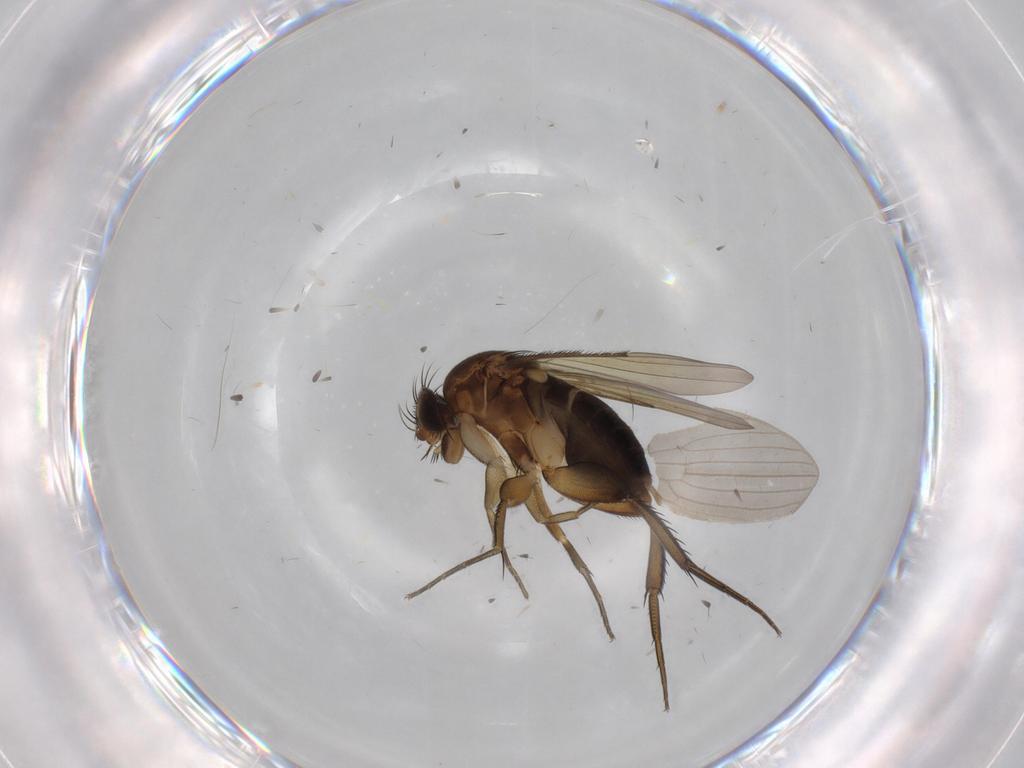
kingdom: Animalia
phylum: Arthropoda
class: Insecta
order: Diptera
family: Phoridae
